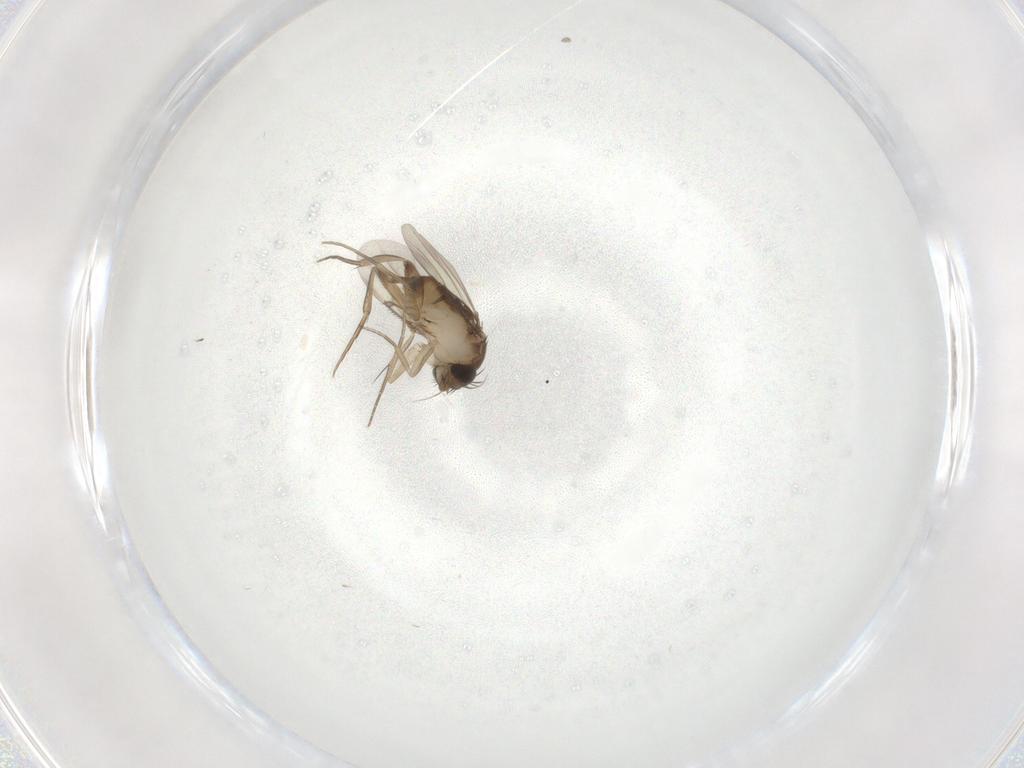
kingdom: Animalia
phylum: Arthropoda
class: Insecta
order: Diptera
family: Phoridae
